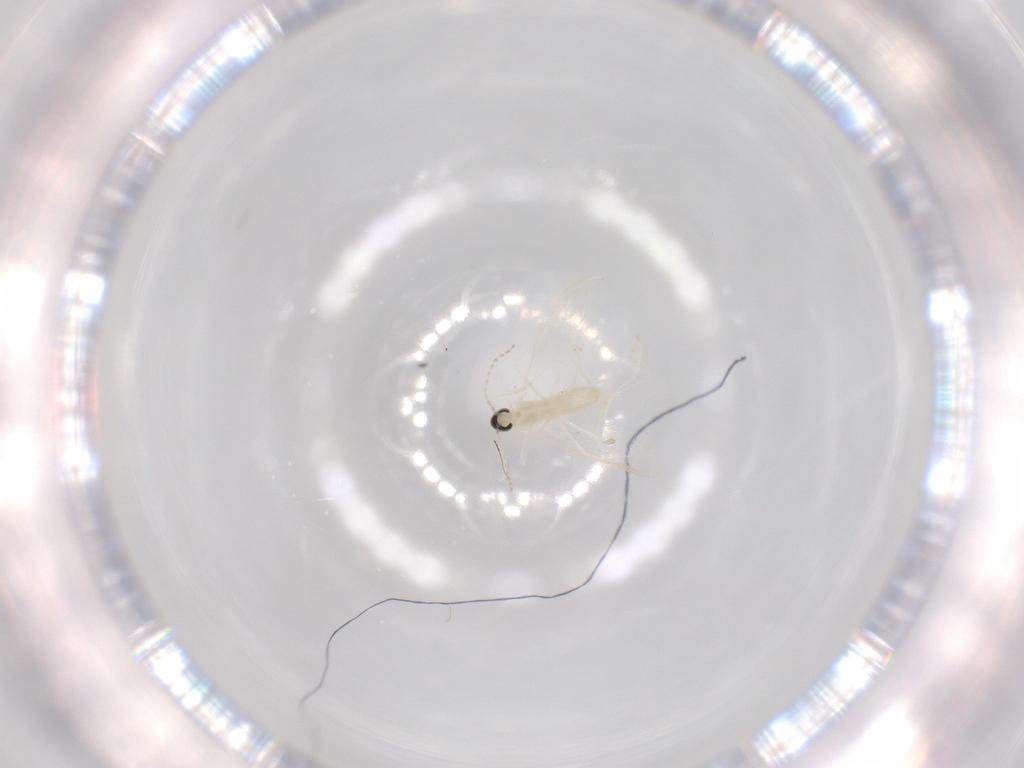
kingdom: Animalia
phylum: Arthropoda
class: Insecta
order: Diptera
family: Cecidomyiidae
